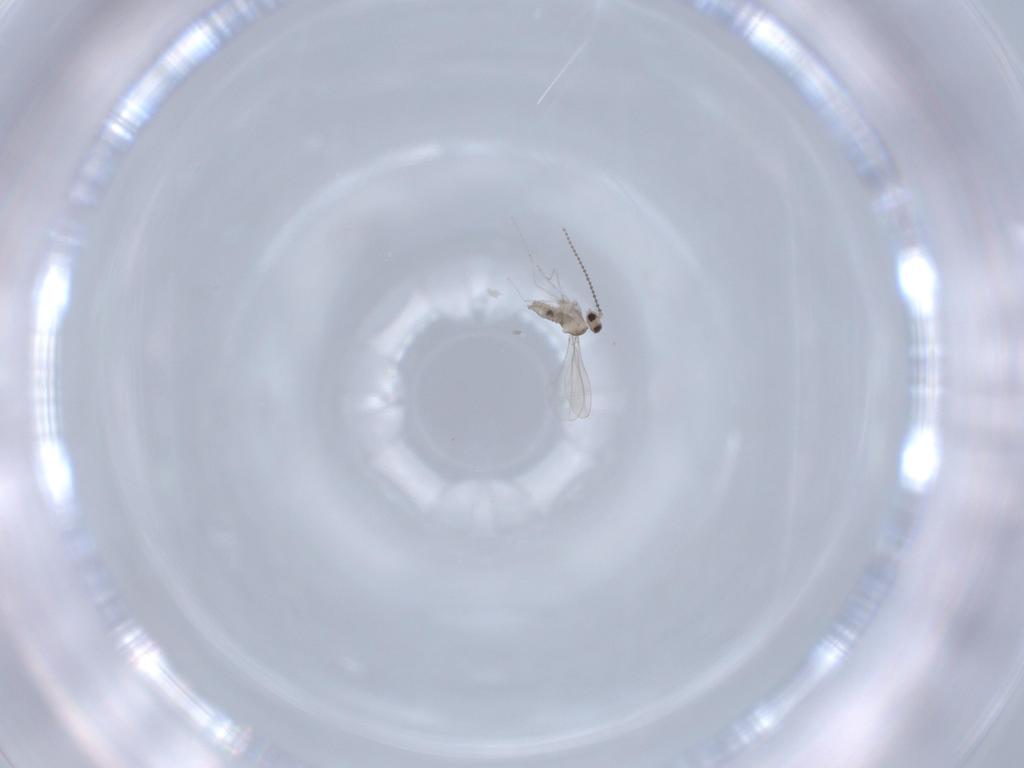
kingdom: Animalia
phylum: Arthropoda
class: Insecta
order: Diptera
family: Cecidomyiidae
